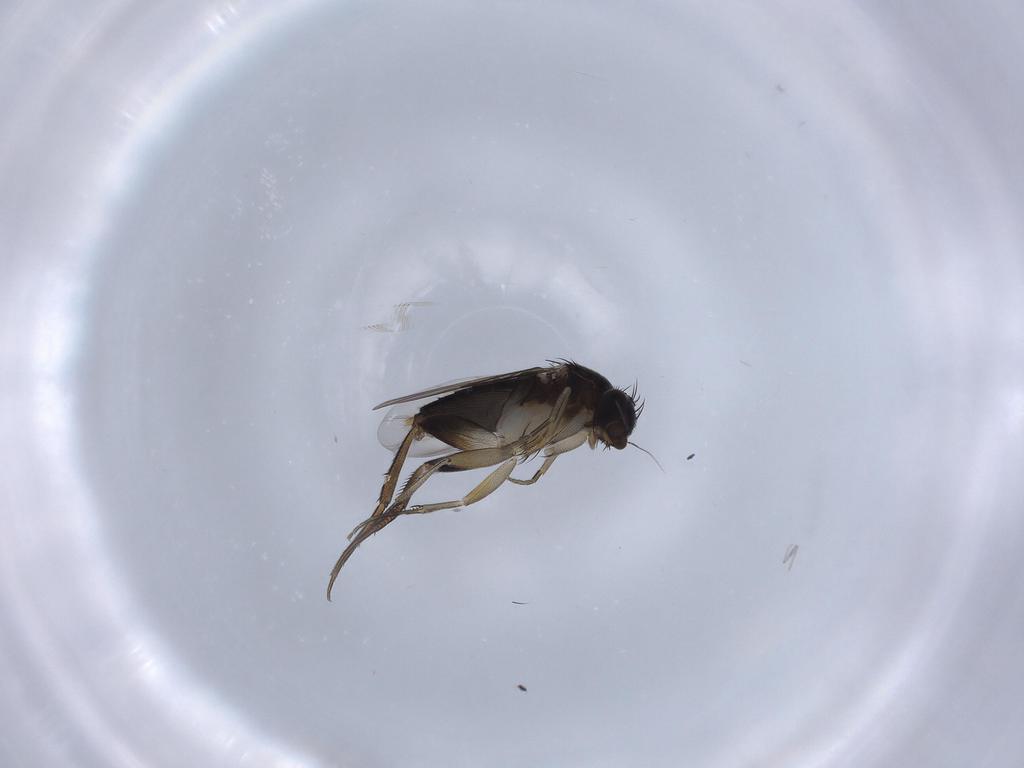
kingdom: Animalia
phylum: Arthropoda
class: Insecta
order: Diptera
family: Phoridae
